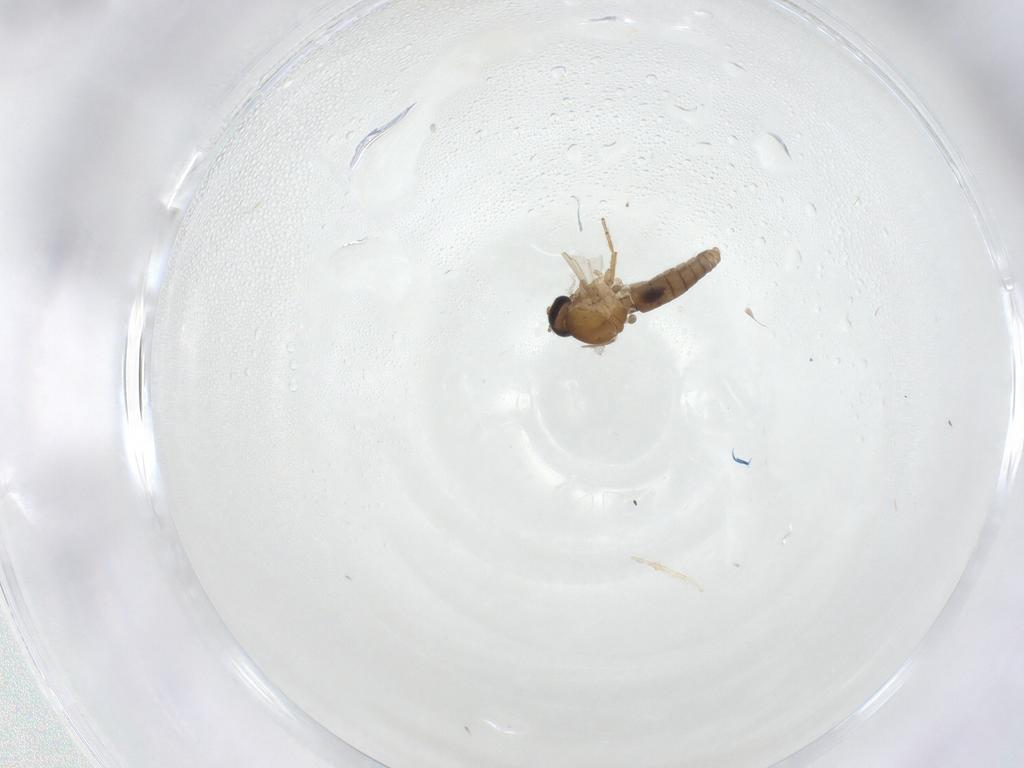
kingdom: Animalia
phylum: Arthropoda
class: Insecta
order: Diptera
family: Ceratopogonidae
